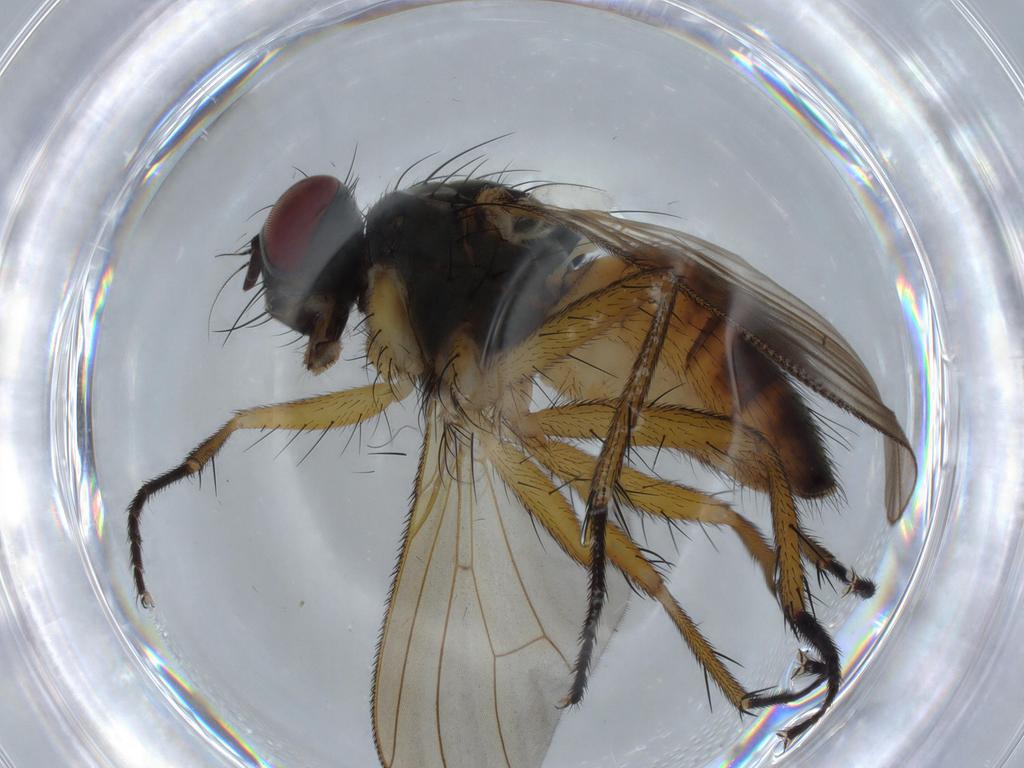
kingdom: Animalia
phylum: Arthropoda
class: Insecta
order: Diptera
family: Muscidae
